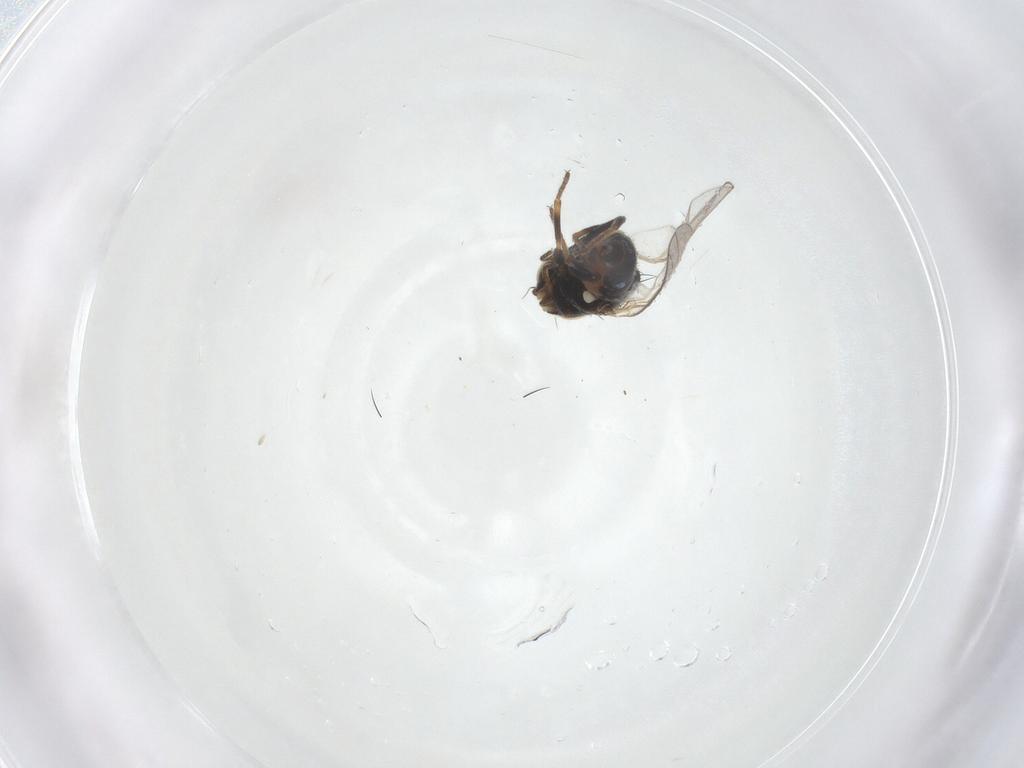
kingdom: Animalia
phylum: Arthropoda
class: Insecta
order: Diptera
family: Chloropidae
